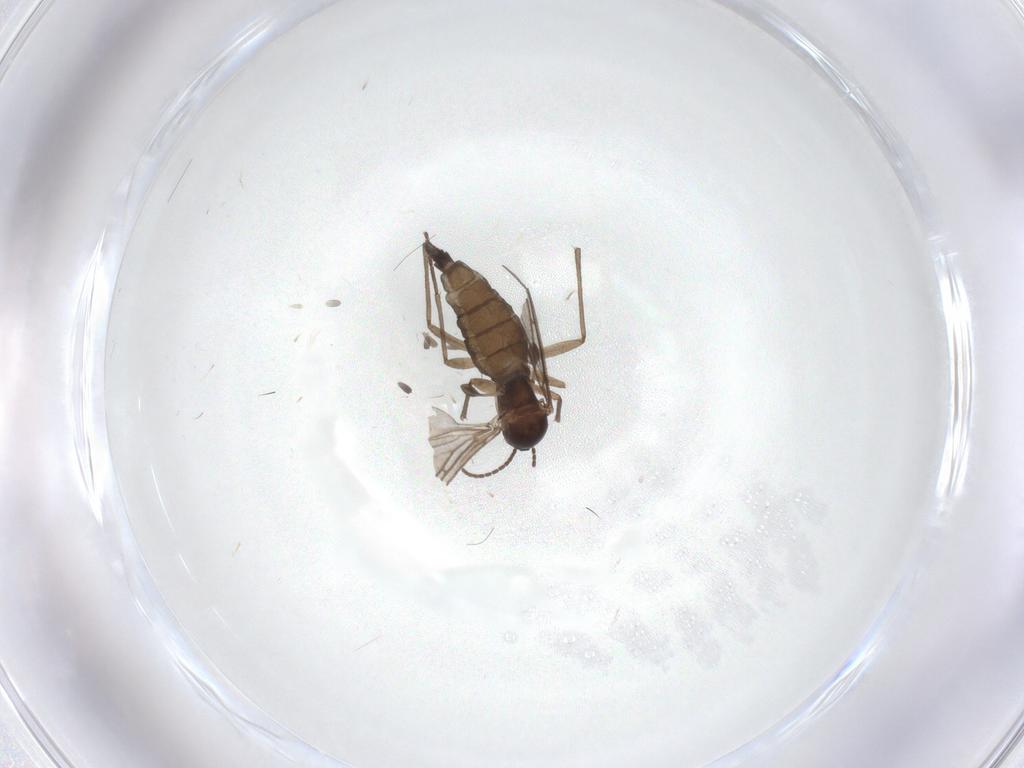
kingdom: Animalia
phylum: Arthropoda
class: Insecta
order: Diptera
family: Sciaridae
